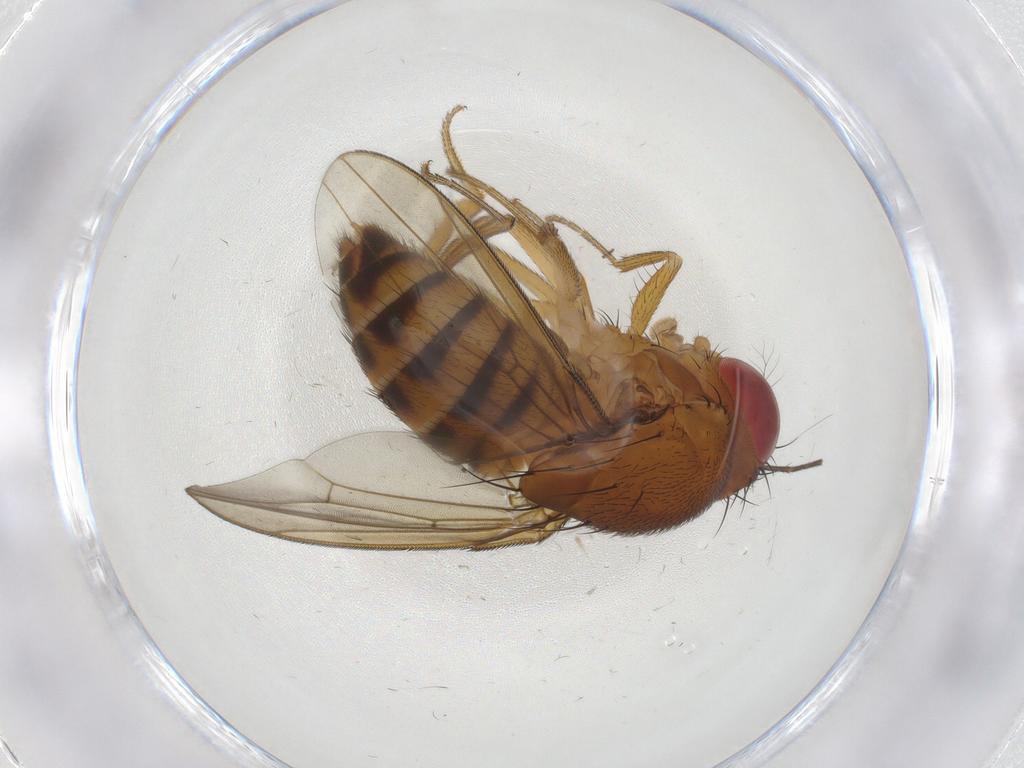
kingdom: Animalia
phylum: Arthropoda
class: Insecta
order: Diptera
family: Drosophilidae
